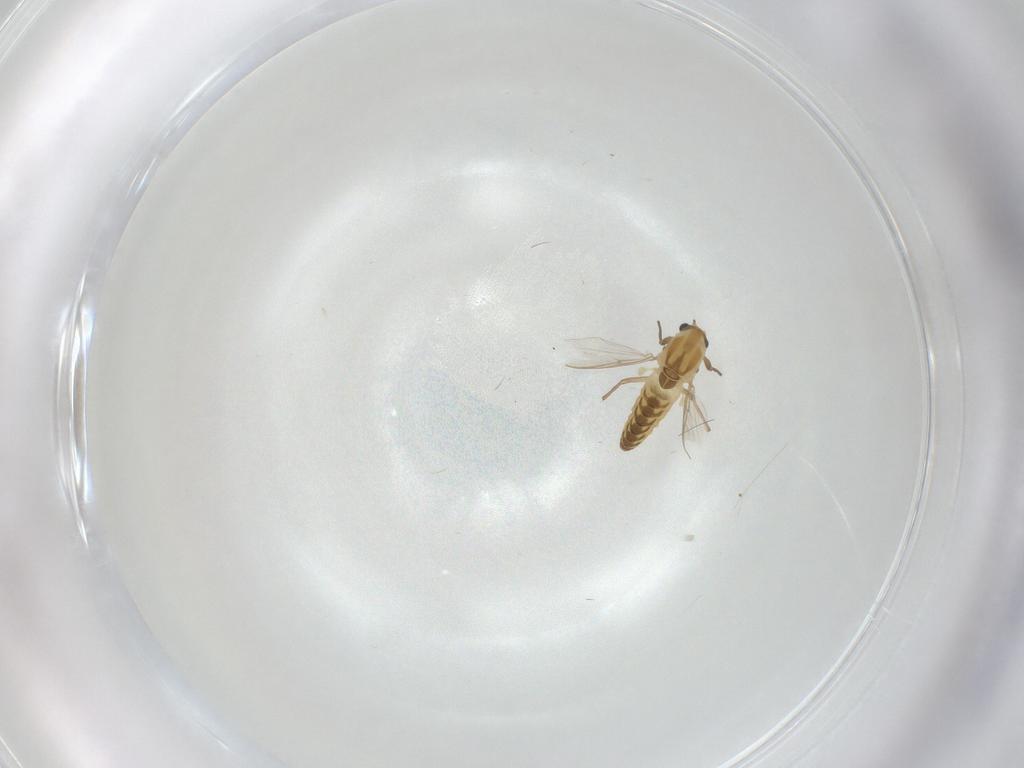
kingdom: Animalia
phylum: Arthropoda
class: Insecta
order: Diptera
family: Chironomidae
